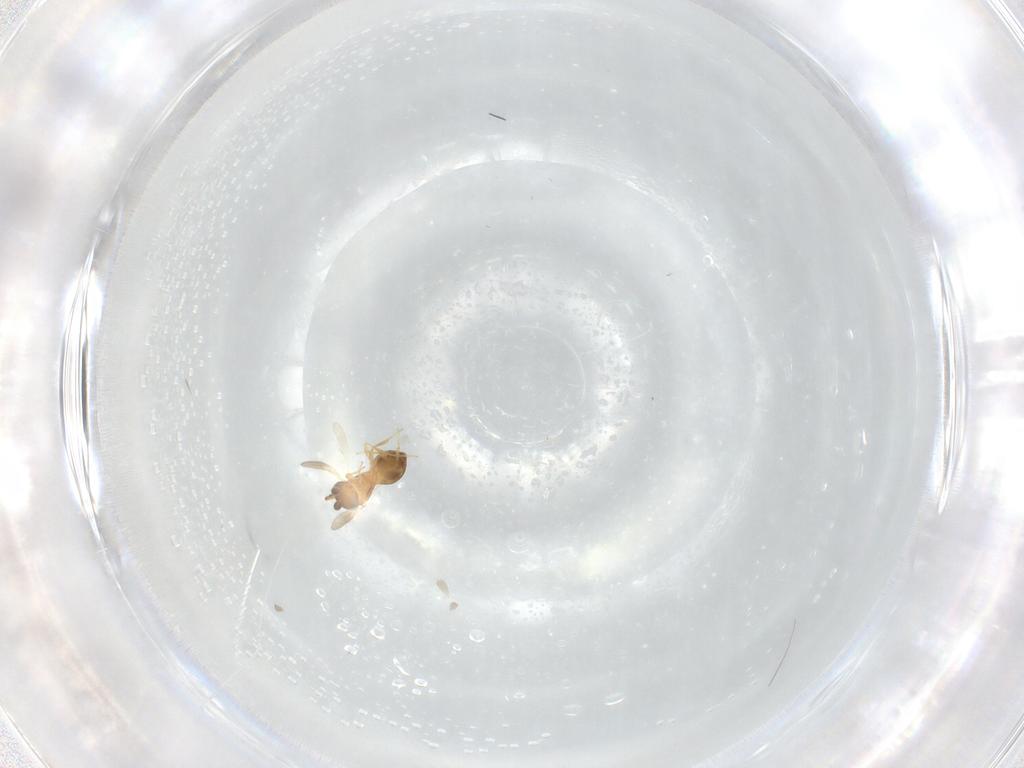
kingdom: Animalia
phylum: Arthropoda
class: Insecta
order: Hymenoptera
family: Scelionidae
